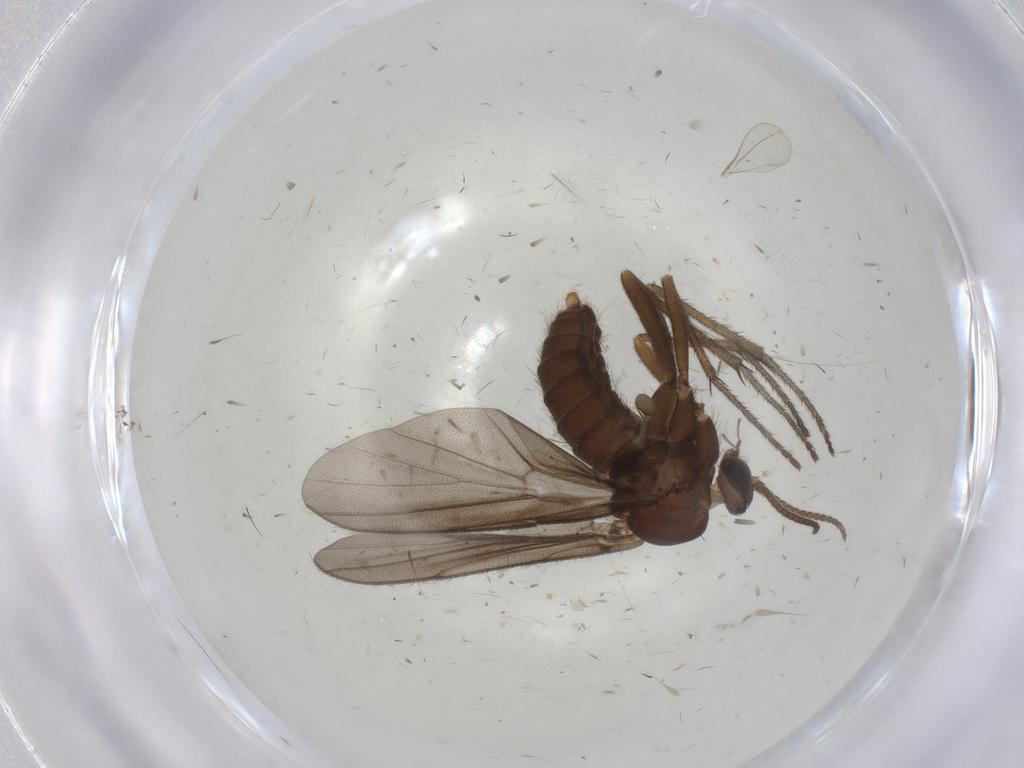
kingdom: Animalia
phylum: Arthropoda
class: Insecta
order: Diptera
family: Diadocidiidae
